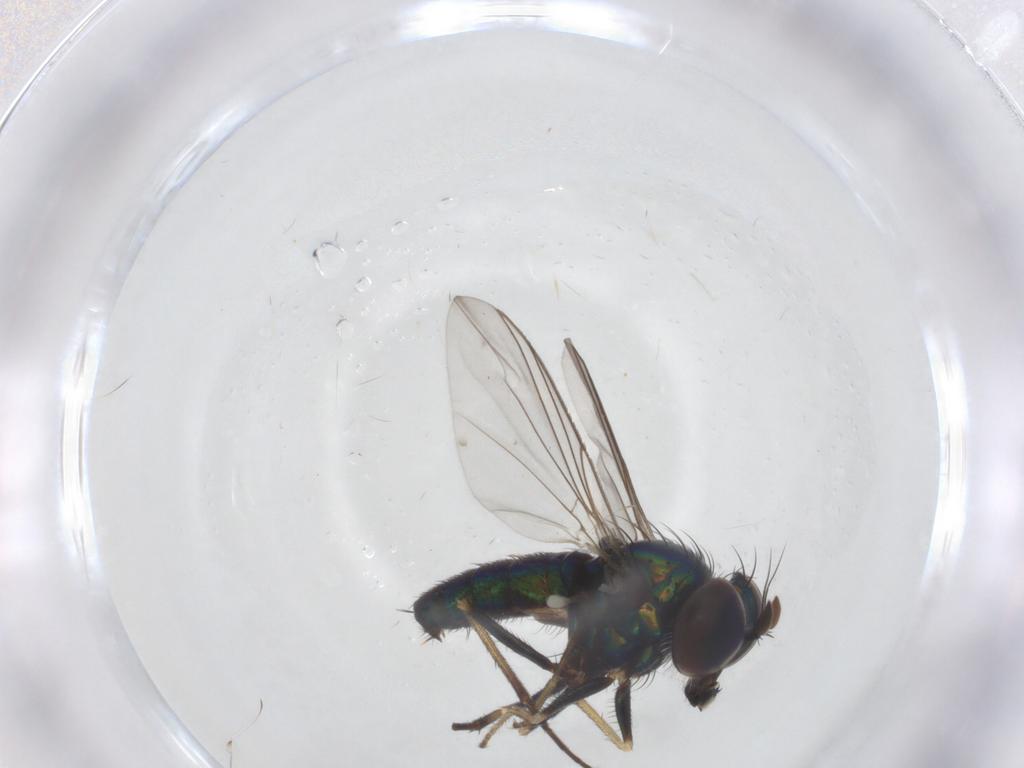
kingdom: Animalia
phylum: Arthropoda
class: Insecta
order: Diptera
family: Dolichopodidae
